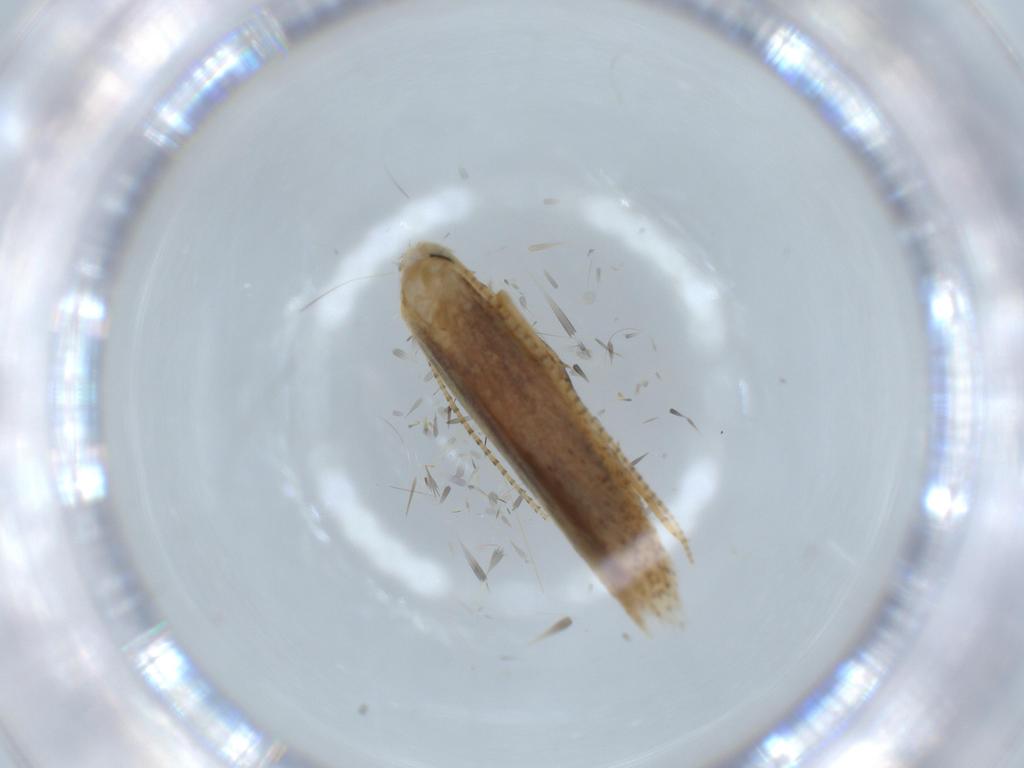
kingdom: Animalia
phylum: Arthropoda
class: Insecta
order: Lepidoptera
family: Bedelliidae
